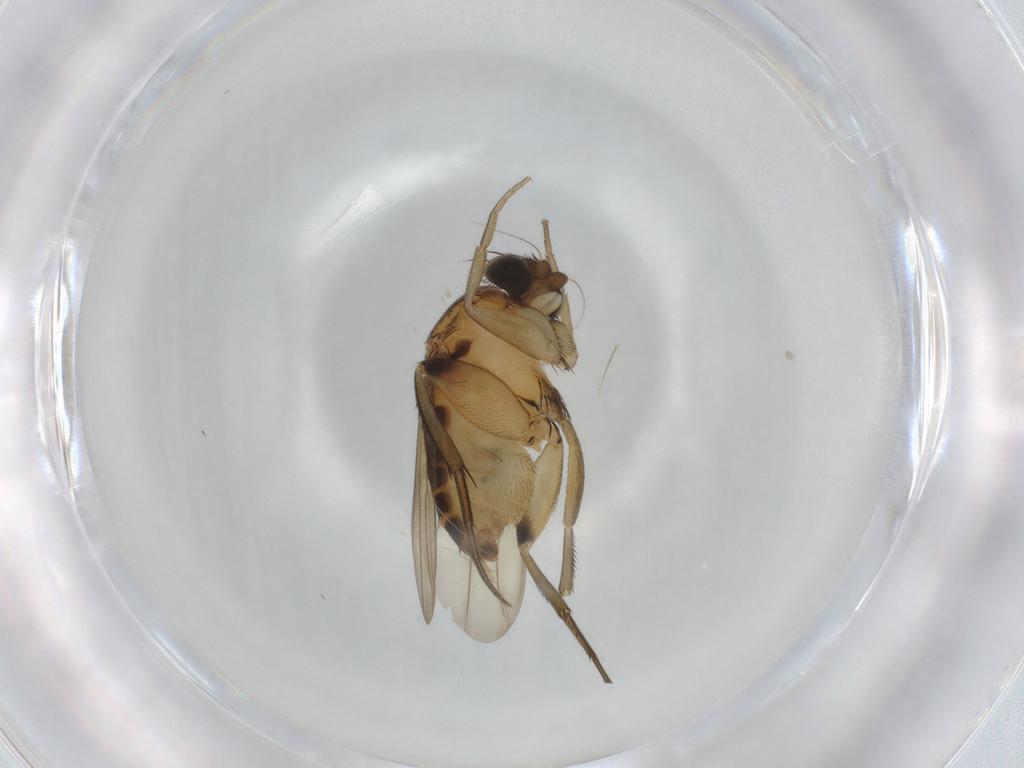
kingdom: Animalia
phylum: Arthropoda
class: Insecta
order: Diptera
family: Phoridae
